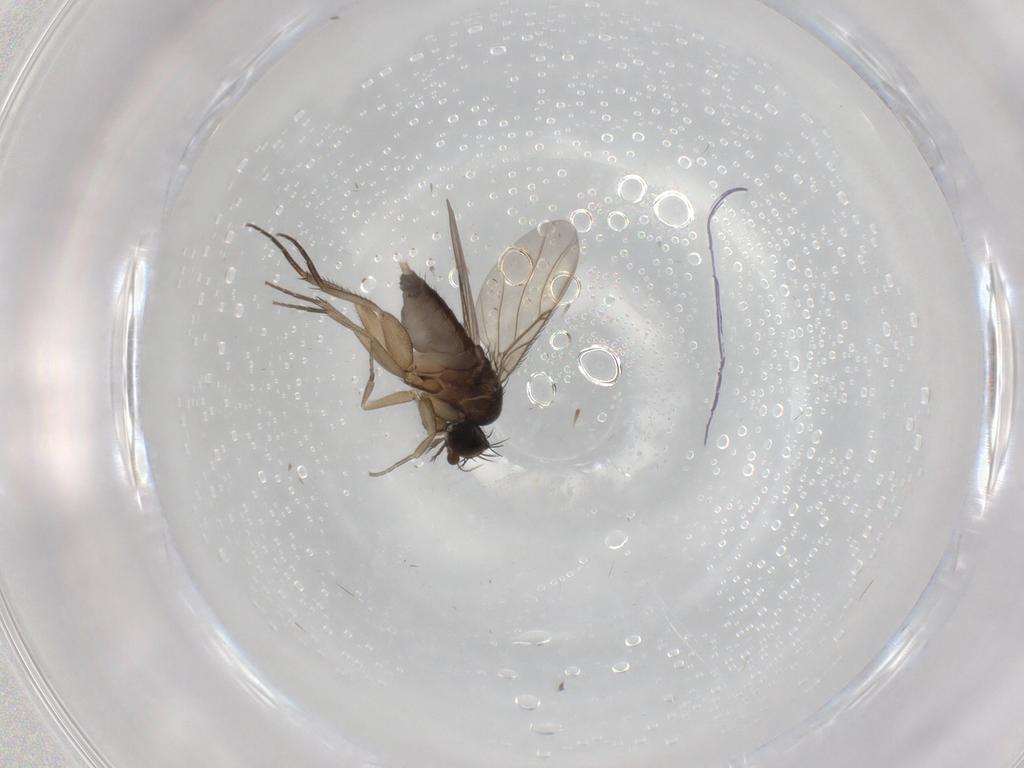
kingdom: Animalia
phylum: Arthropoda
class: Insecta
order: Diptera
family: Phoridae
